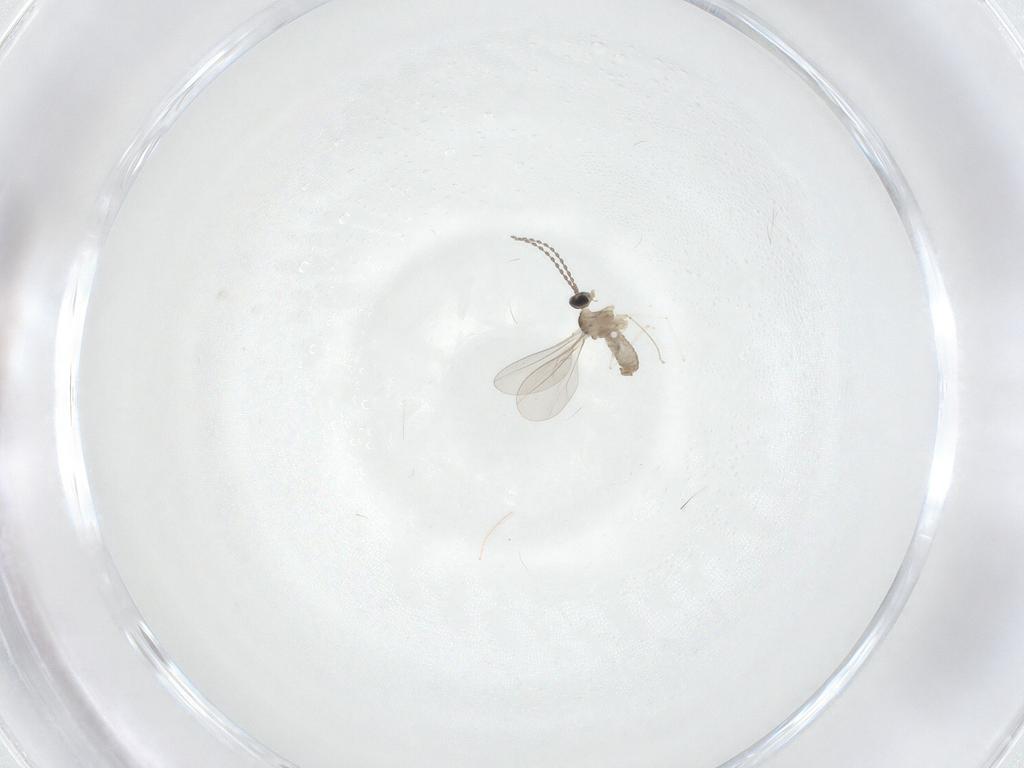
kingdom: Animalia
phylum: Arthropoda
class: Insecta
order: Diptera
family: Cecidomyiidae
